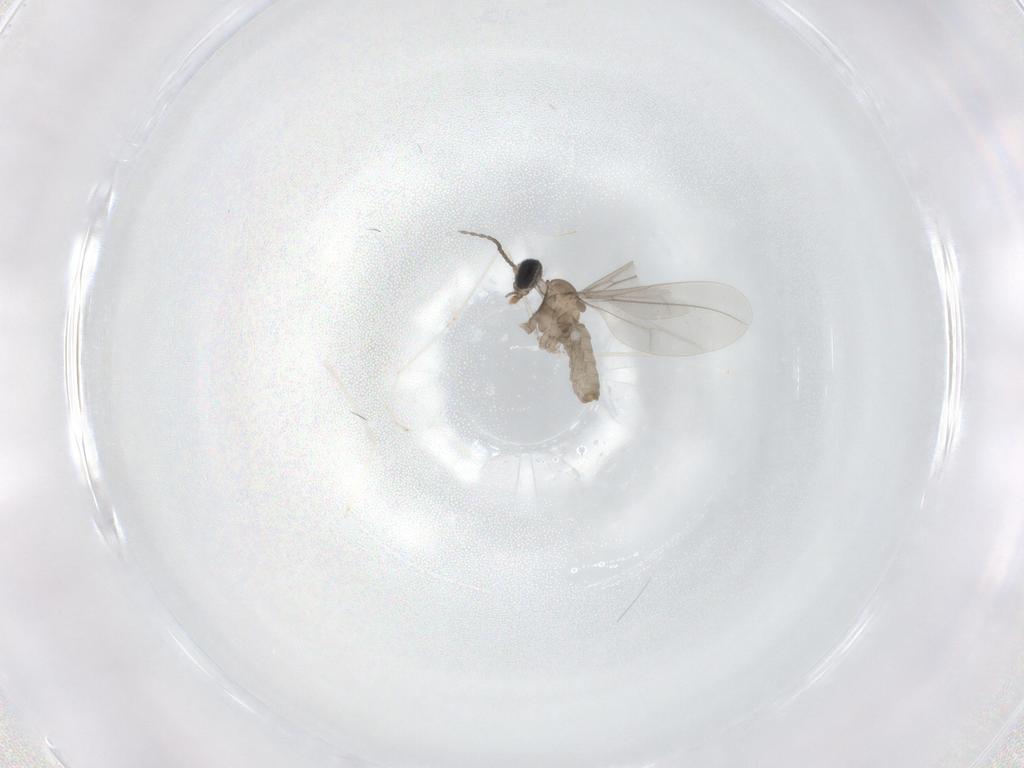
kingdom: Animalia
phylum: Arthropoda
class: Insecta
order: Diptera
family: Cecidomyiidae
